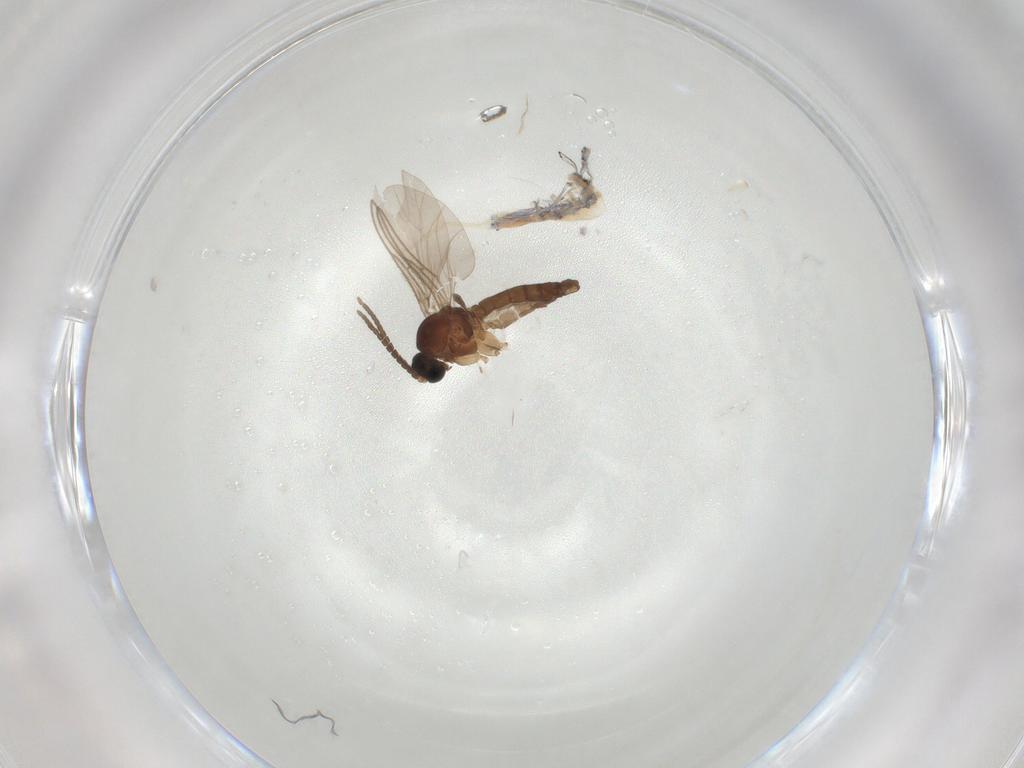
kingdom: Animalia
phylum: Arthropoda
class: Insecta
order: Diptera
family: Sciaridae
